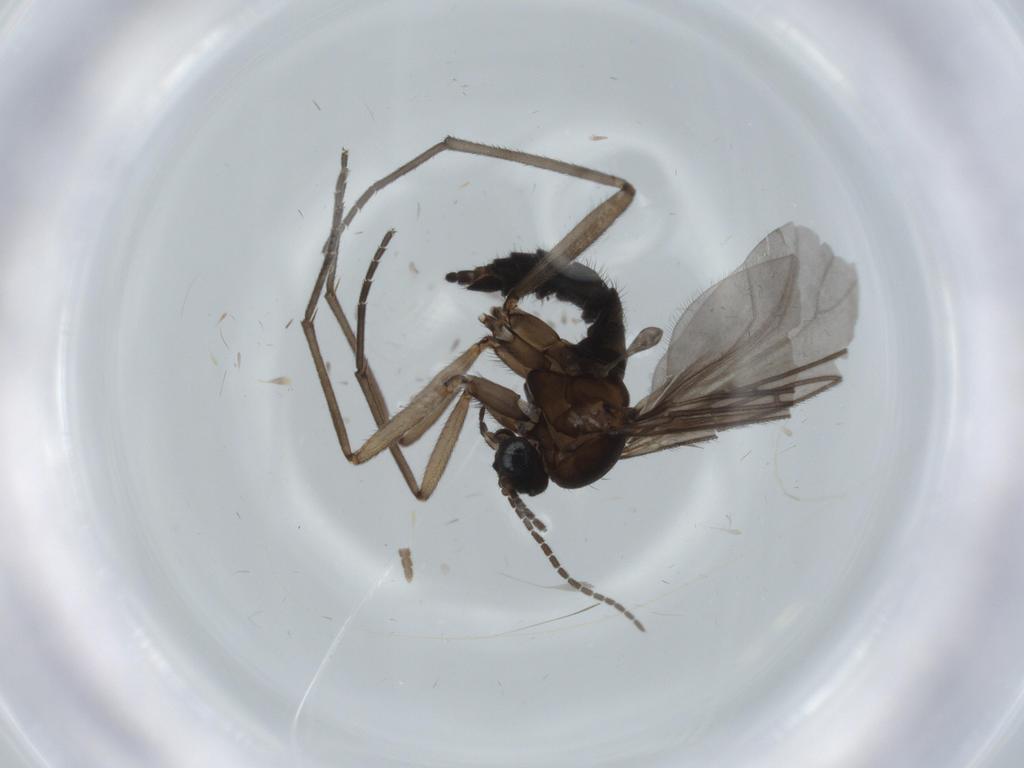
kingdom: Animalia
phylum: Arthropoda
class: Insecta
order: Diptera
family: Sciaridae
